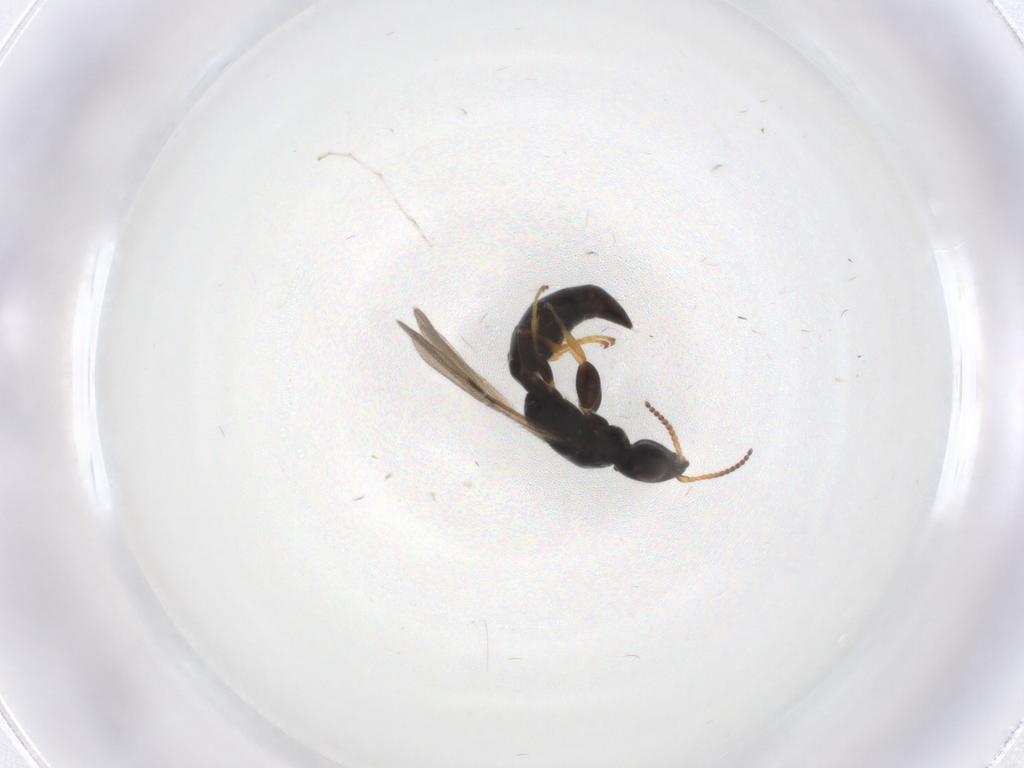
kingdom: Animalia
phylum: Arthropoda
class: Insecta
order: Hymenoptera
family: Bethylidae
